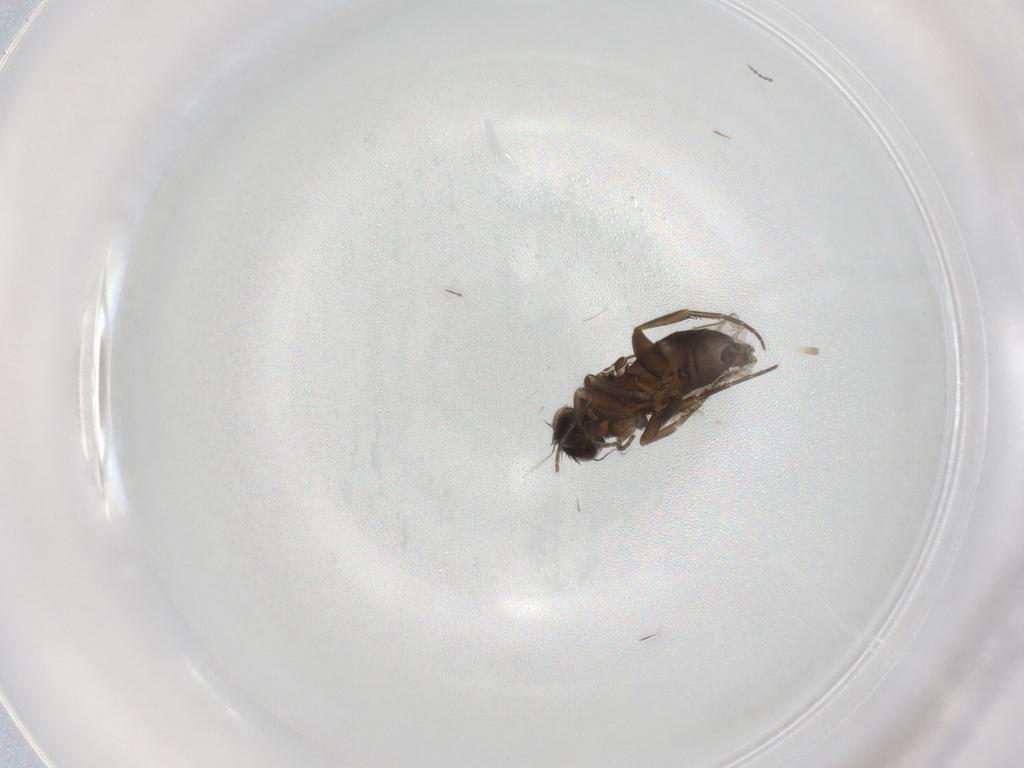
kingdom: Animalia
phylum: Arthropoda
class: Insecta
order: Diptera
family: Phoridae
